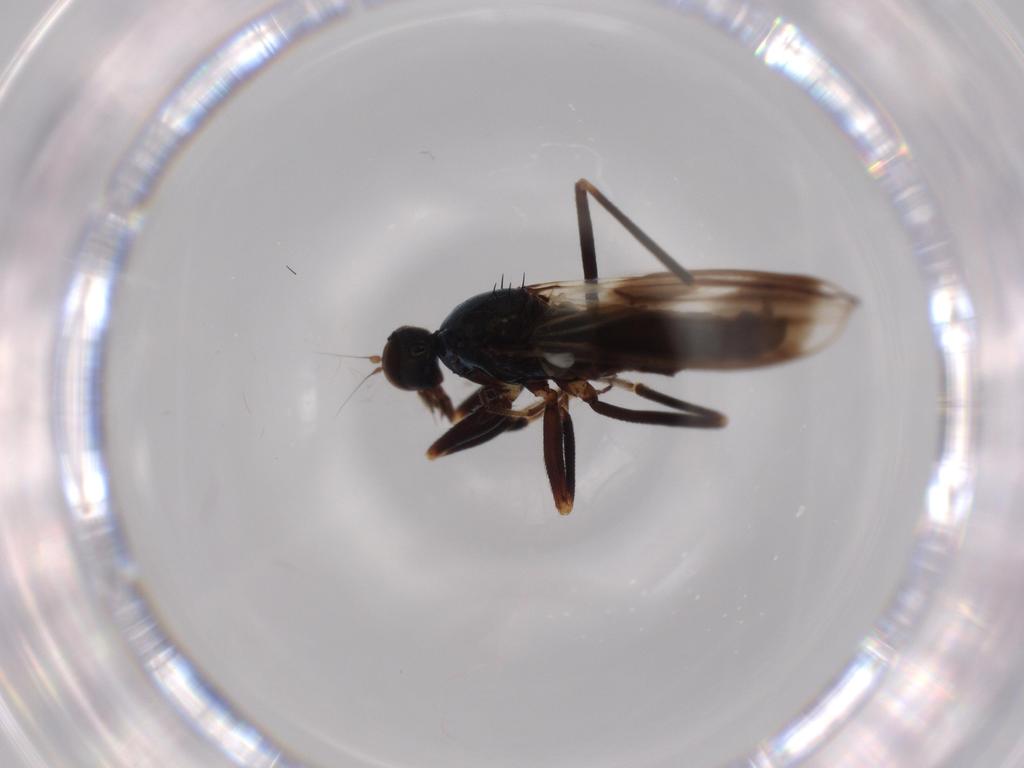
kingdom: Animalia
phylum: Arthropoda
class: Insecta
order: Diptera
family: Hybotidae
